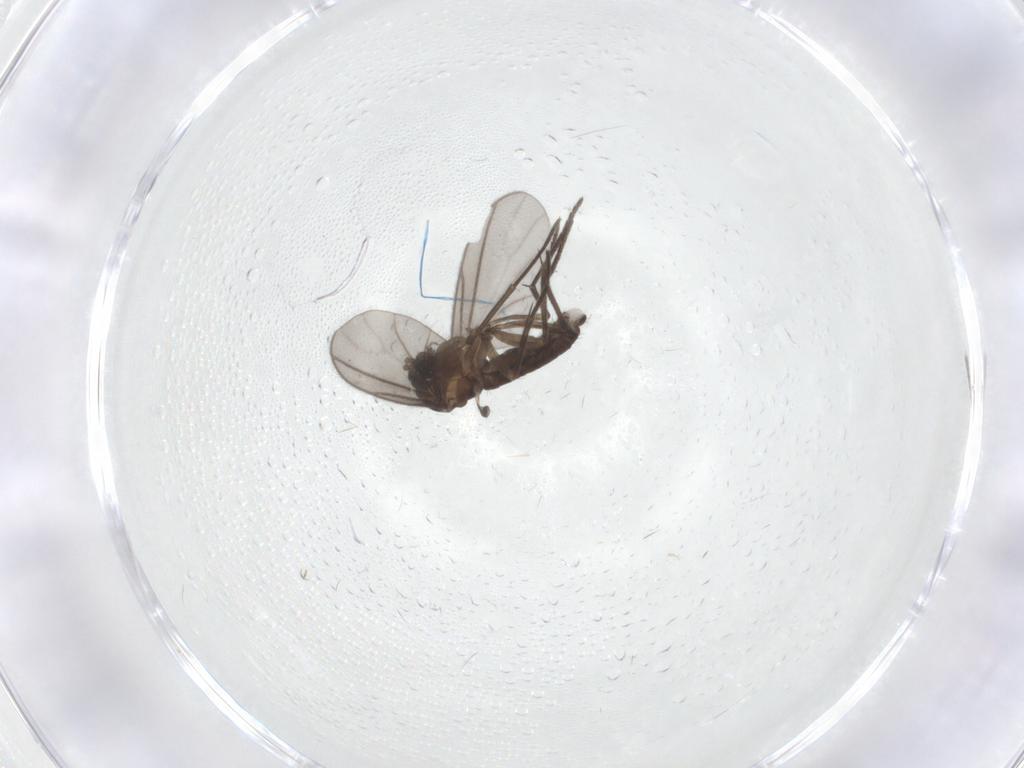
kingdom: Animalia
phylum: Arthropoda
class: Insecta
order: Diptera
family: Sciaridae
